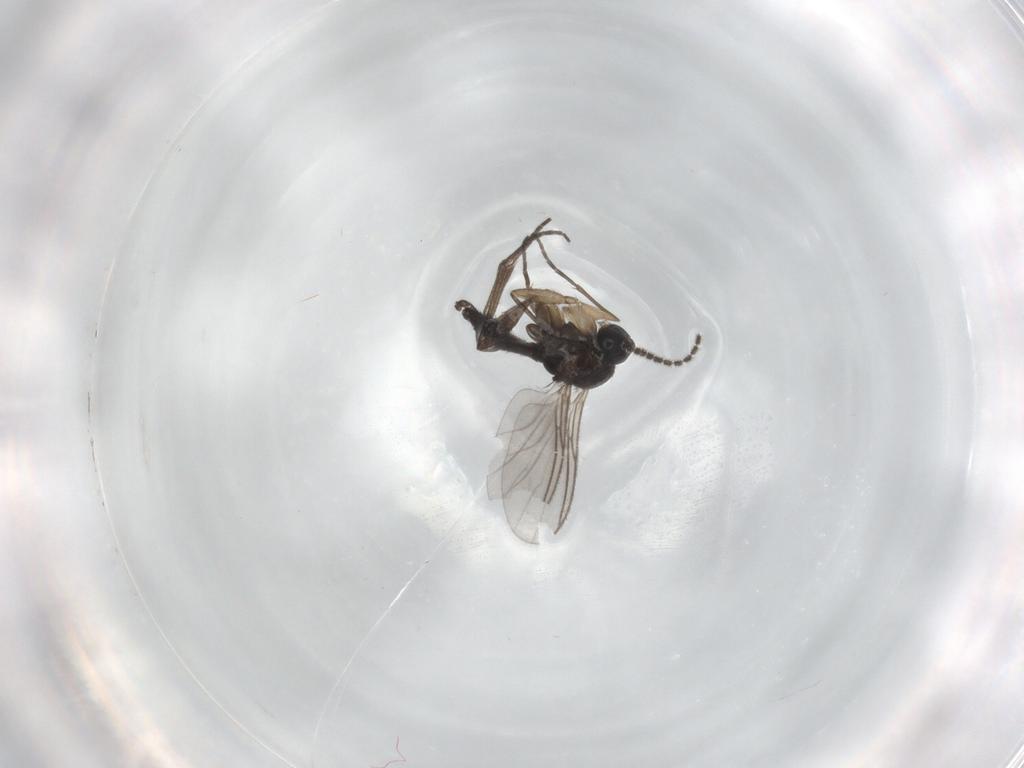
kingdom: Animalia
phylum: Arthropoda
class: Insecta
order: Diptera
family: Sciaridae
